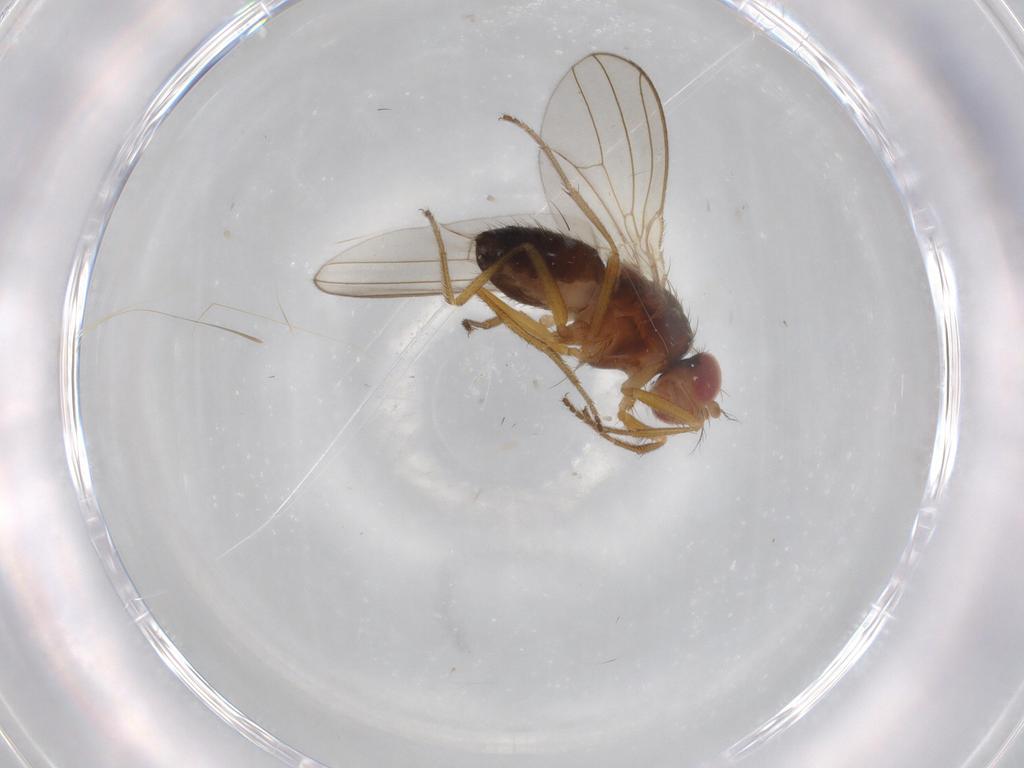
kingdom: Animalia
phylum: Arthropoda
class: Insecta
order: Diptera
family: Drosophilidae
